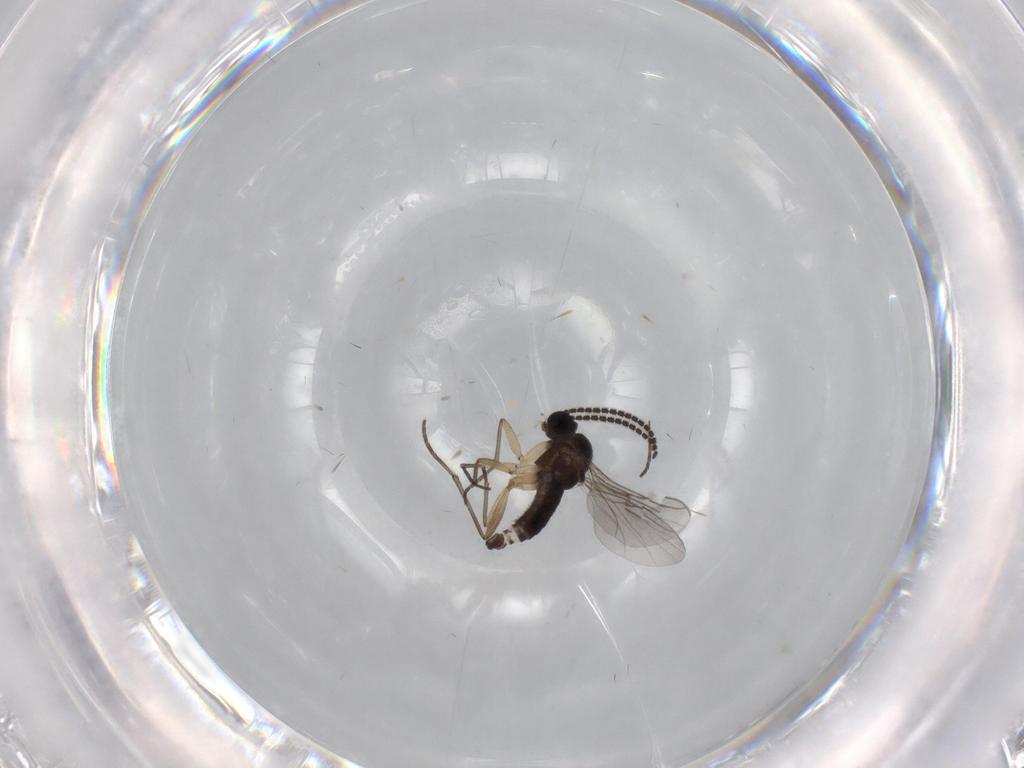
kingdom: Animalia
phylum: Arthropoda
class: Insecta
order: Diptera
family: Sciaridae
